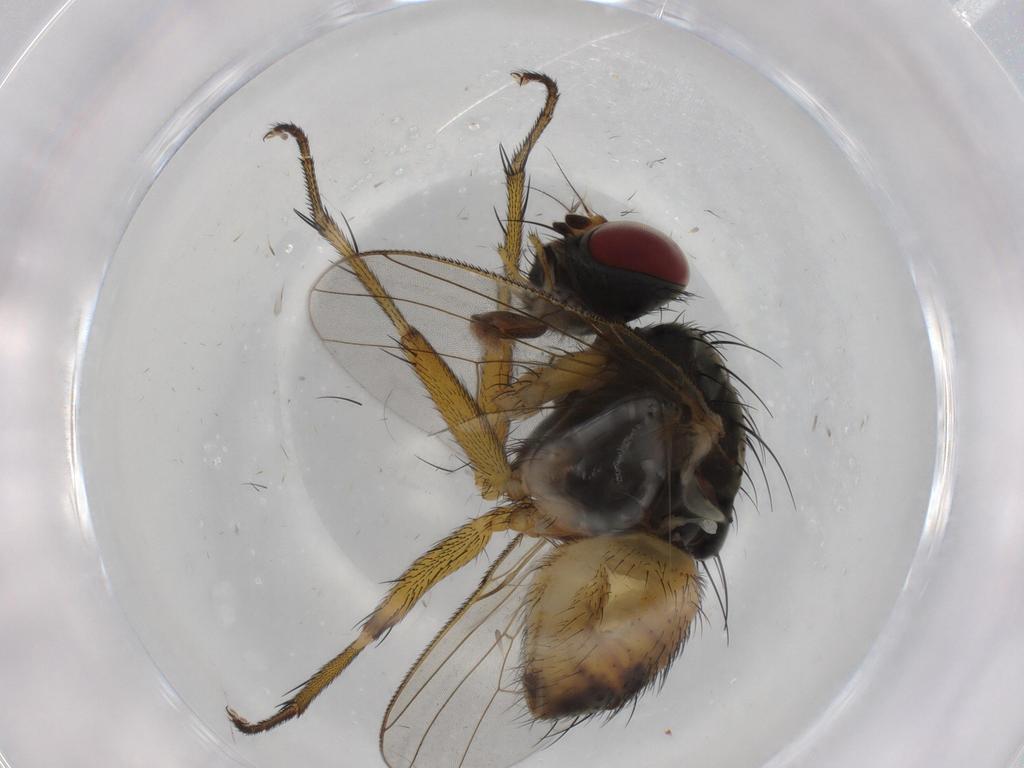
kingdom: Animalia
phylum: Arthropoda
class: Insecta
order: Diptera
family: Muscidae
